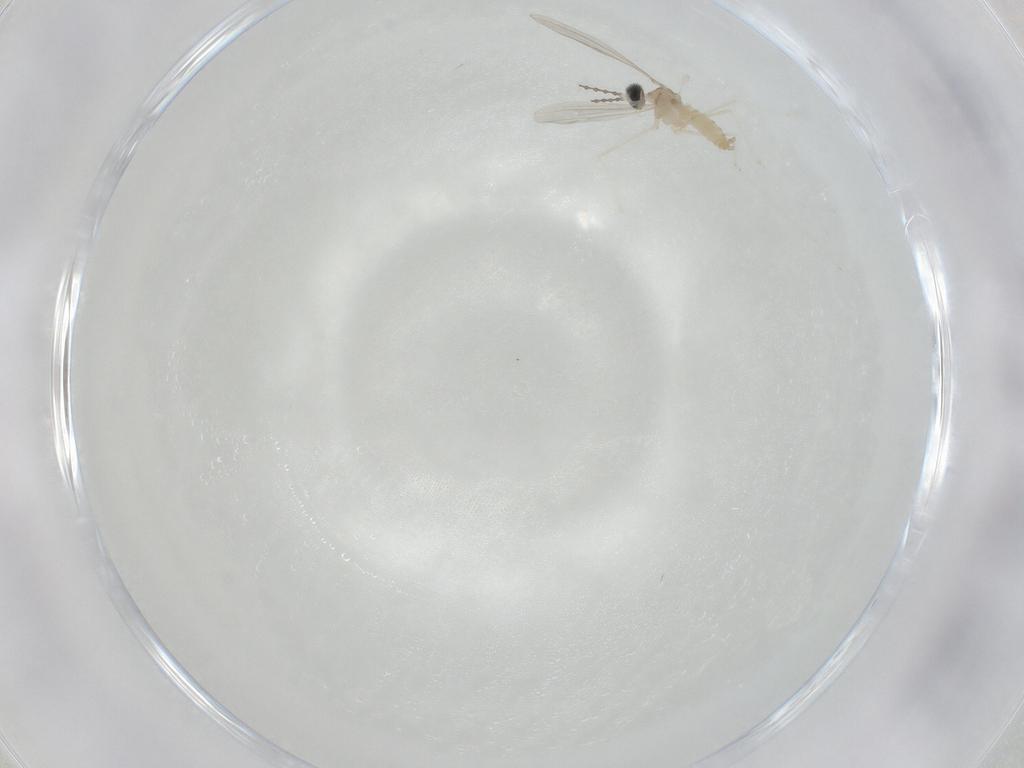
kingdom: Animalia
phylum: Arthropoda
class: Insecta
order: Diptera
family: Cecidomyiidae
